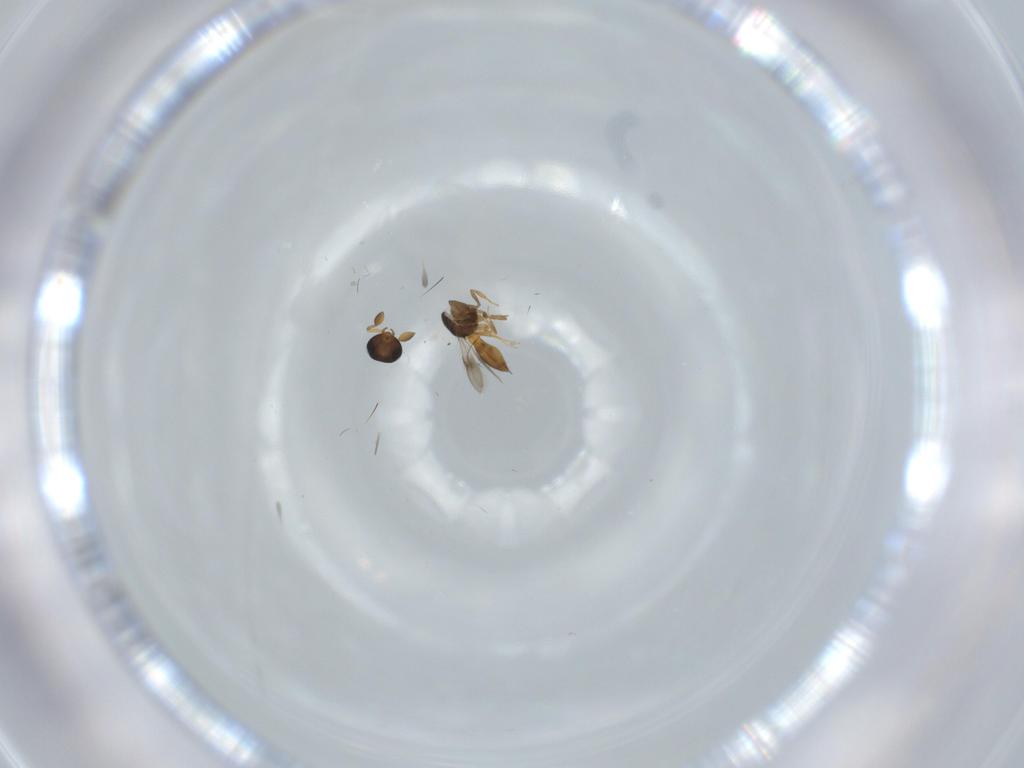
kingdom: Animalia
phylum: Arthropoda
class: Insecta
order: Hymenoptera
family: Scelionidae
